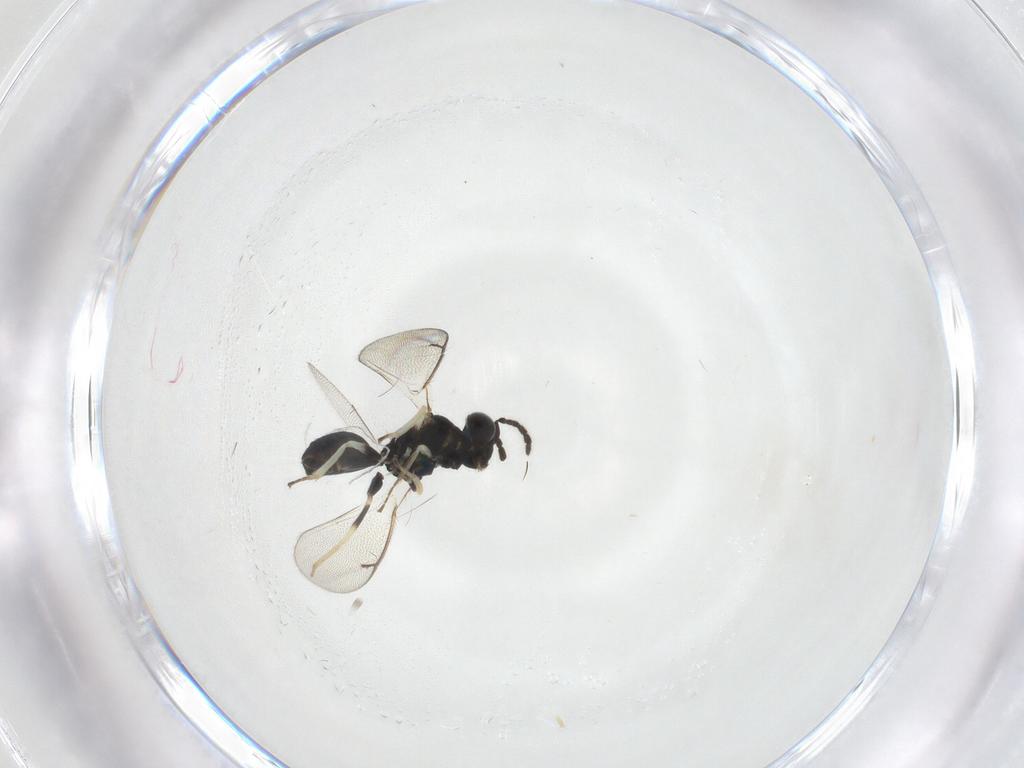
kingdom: Animalia
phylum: Arthropoda
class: Insecta
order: Hymenoptera
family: Eulophidae
